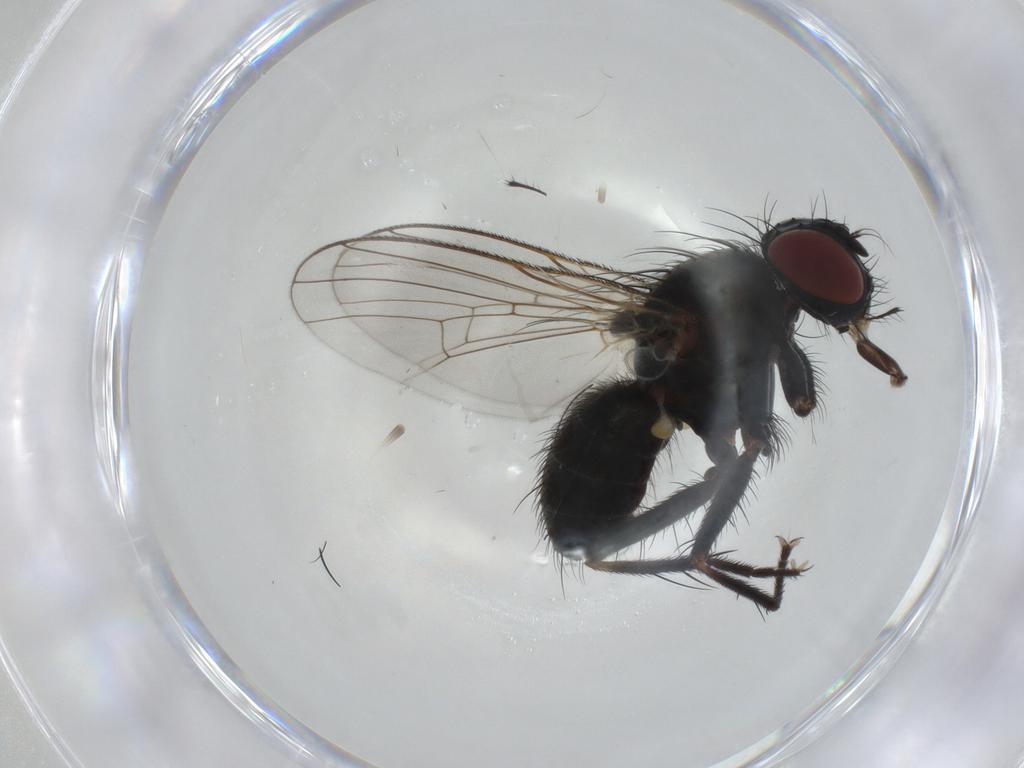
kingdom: Animalia
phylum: Arthropoda
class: Insecta
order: Diptera
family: Muscidae
